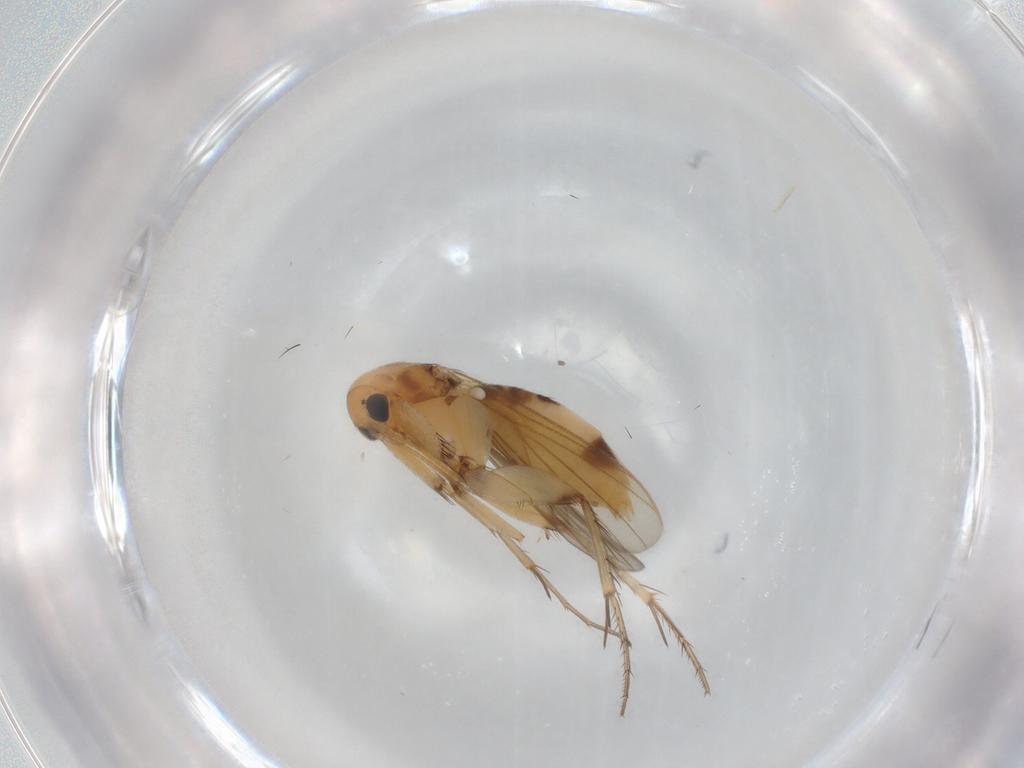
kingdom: Animalia
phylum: Arthropoda
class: Insecta
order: Diptera
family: Mycetophilidae
